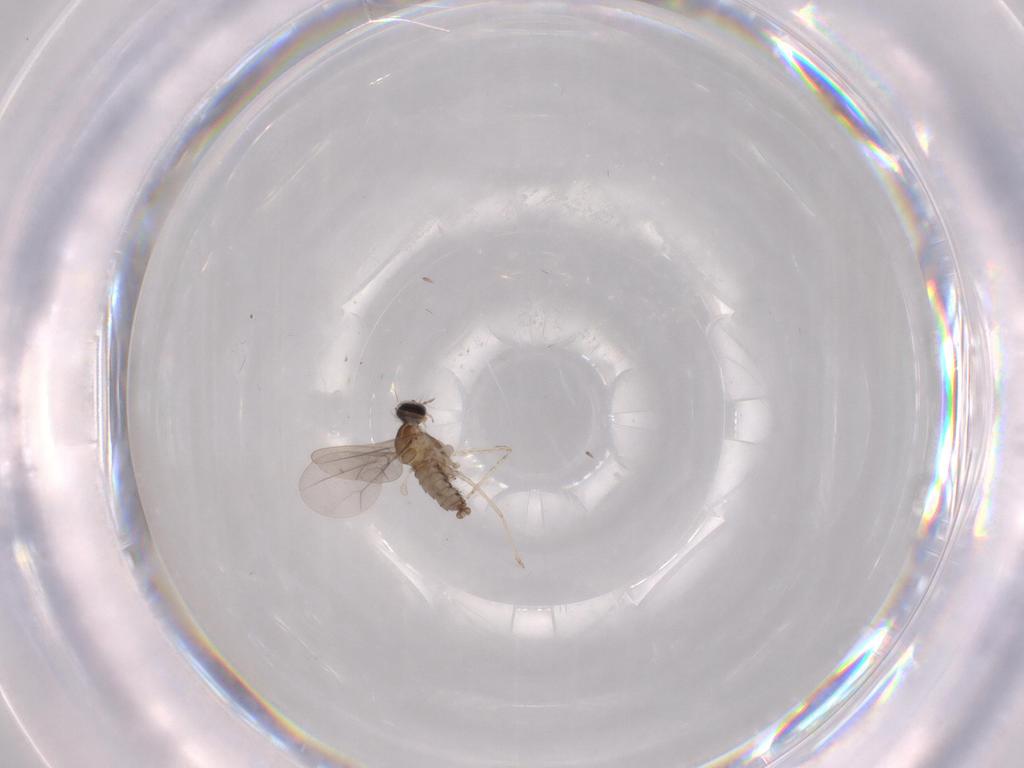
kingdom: Animalia
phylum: Arthropoda
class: Insecta
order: Diptera
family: Chironomidae
